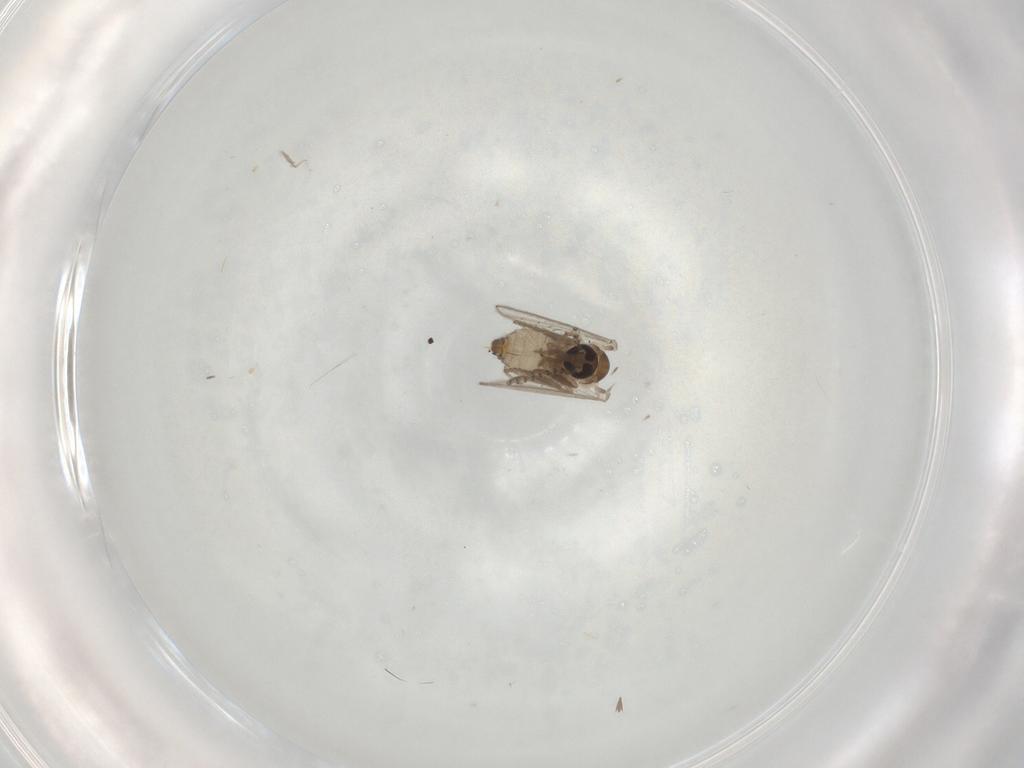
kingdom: Animalia
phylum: Arthropoda
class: Insecta
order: Diptera
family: Psychodidae
